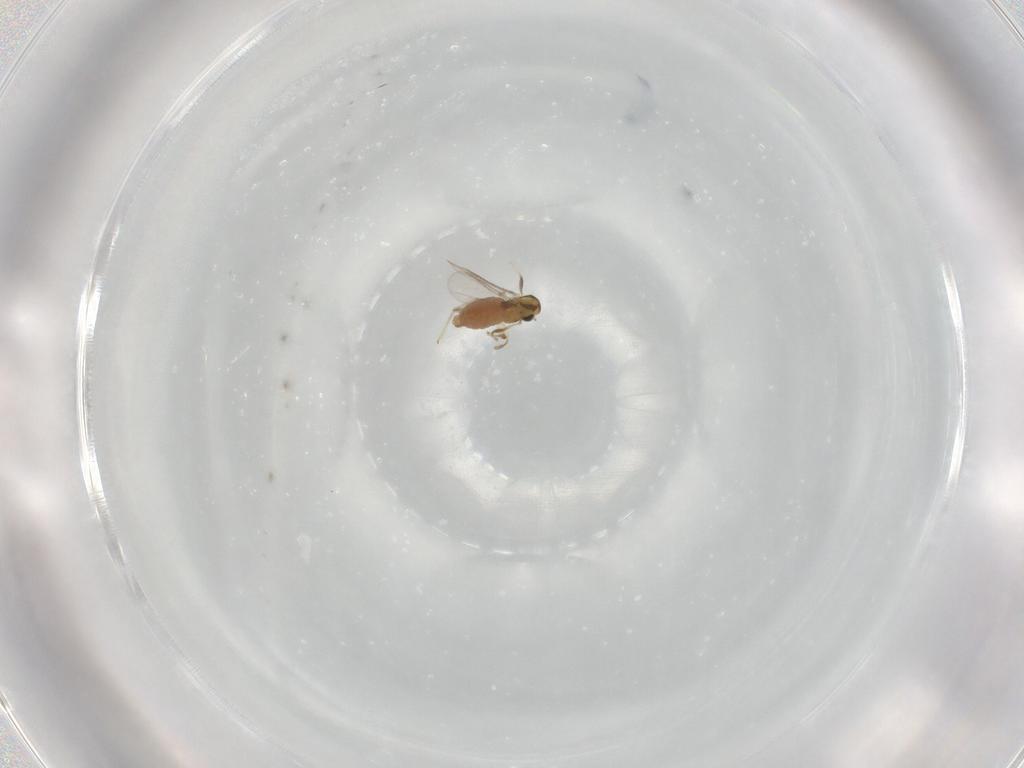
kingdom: Animalia
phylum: Arthropoda
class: Insecta
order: Diptera
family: Chironomidae
